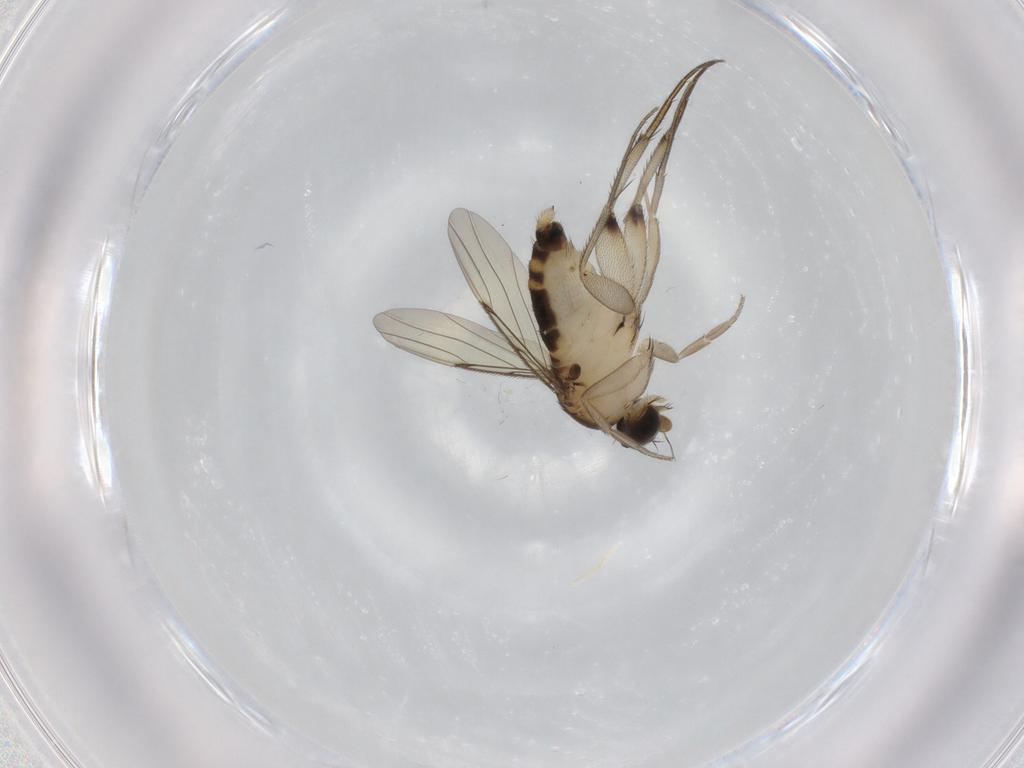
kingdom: Animalia
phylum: Arthropoda
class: Insecta
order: Diptera
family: Phoridae
